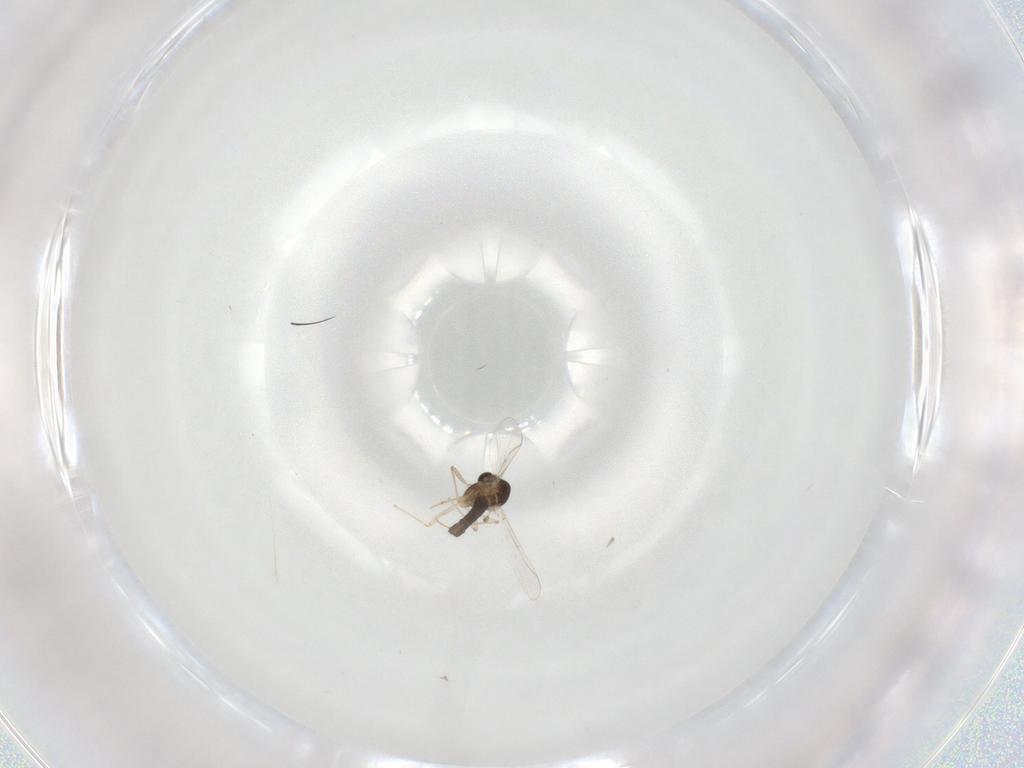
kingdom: Animalia
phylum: Arthropoda
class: Insecta
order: Diptera
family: Chironomidae
